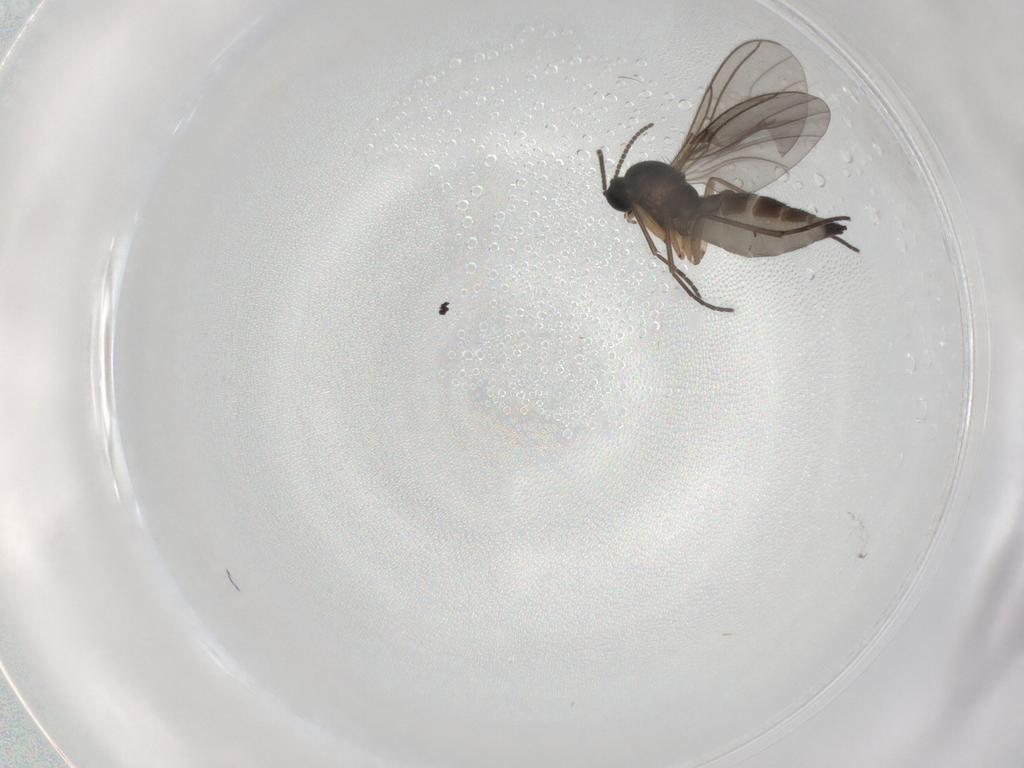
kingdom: Animalia
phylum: Arthropoda
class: Insecta
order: Diptera
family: Sciaridae
